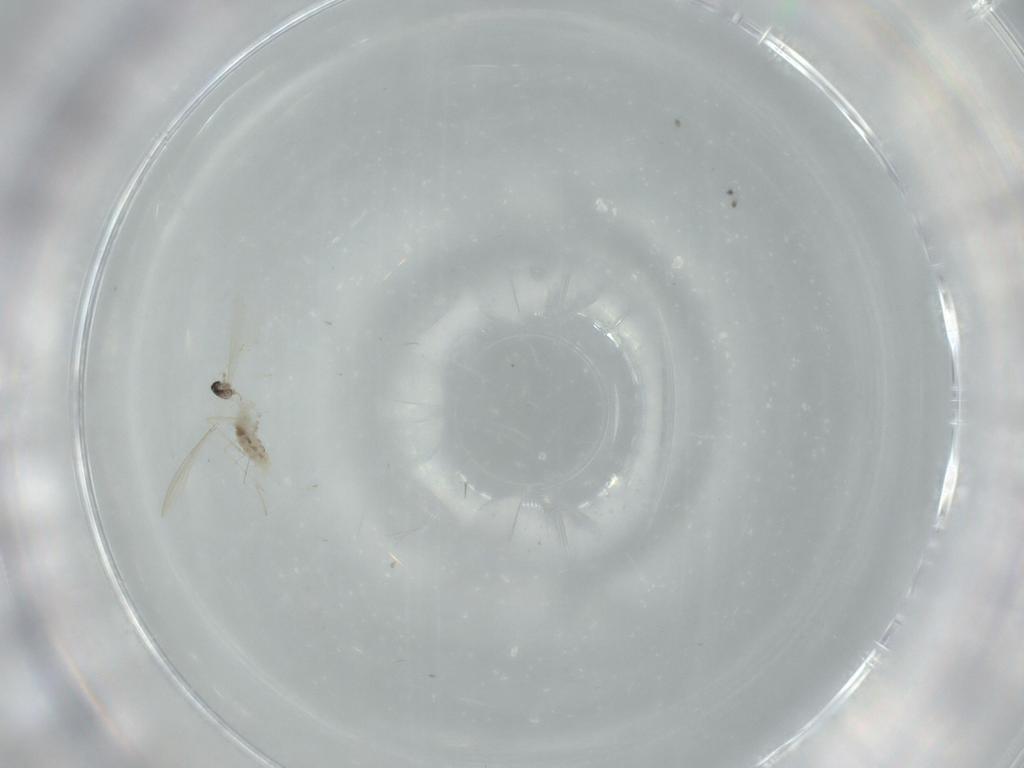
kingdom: Animalia
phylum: Arthropoda
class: Insecta
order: Diptera
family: Cecidomyiidae
